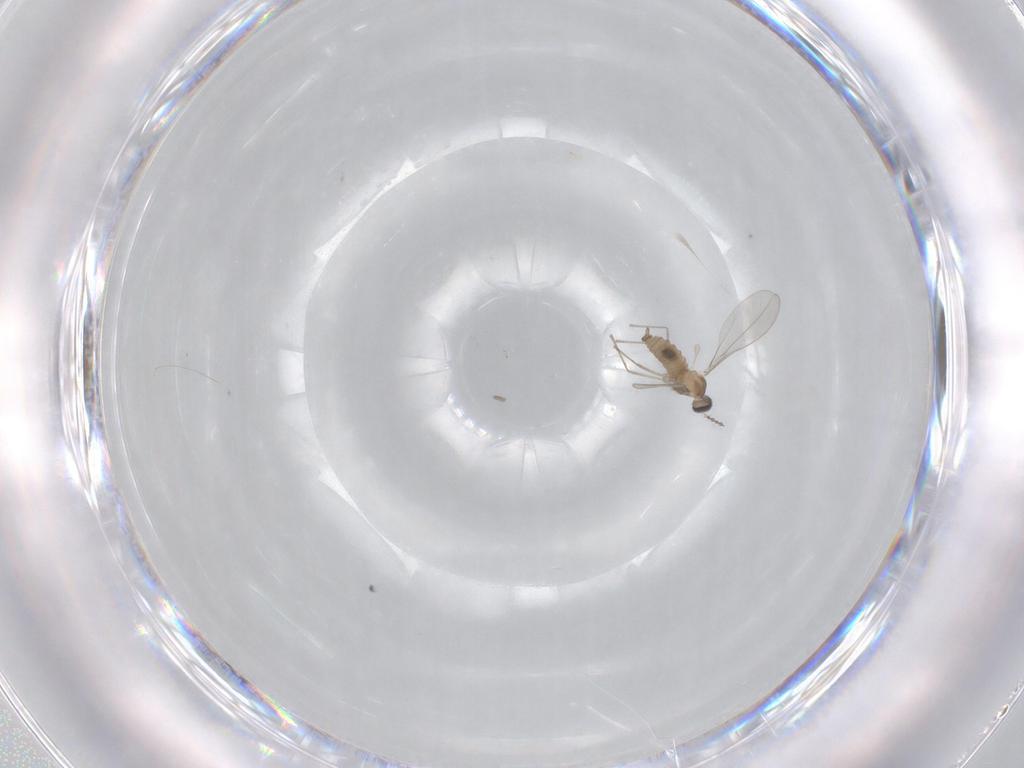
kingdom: Animalia
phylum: Arthropoda
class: Insecta
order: Diptera
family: Cecidomyiidae
